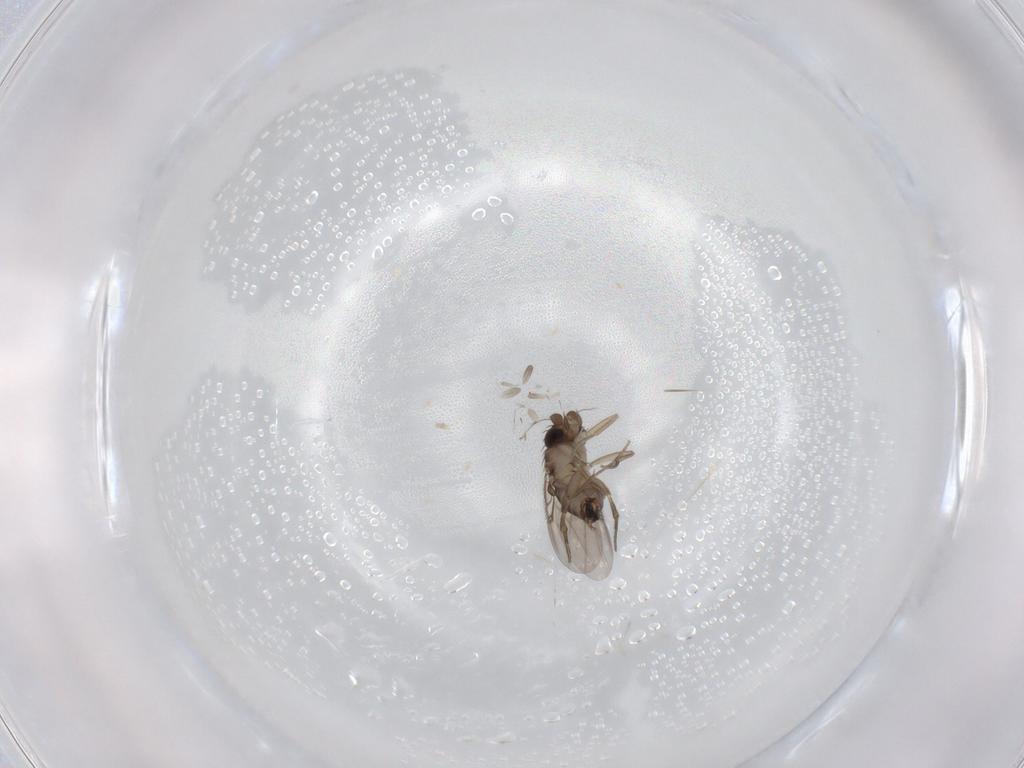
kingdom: Animalia
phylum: Arthropoda
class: Insecta
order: Diptera
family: Phoridae
